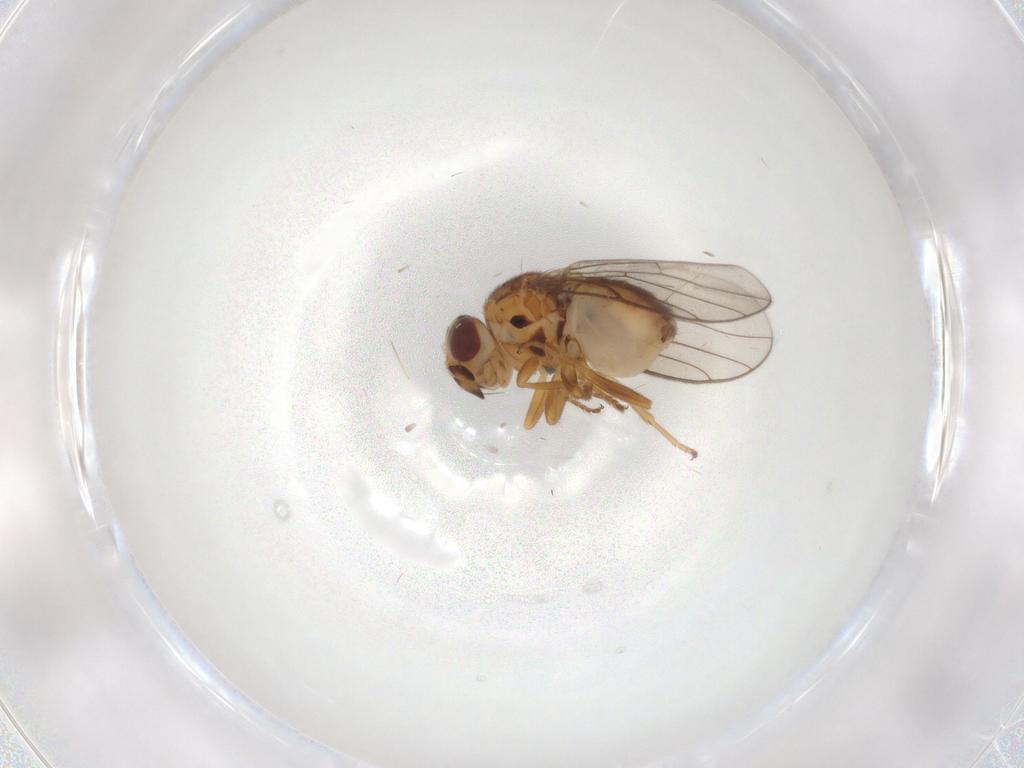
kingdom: Animalia
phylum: Arthropoda
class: Insecta
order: Diptera
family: Chloropidae
